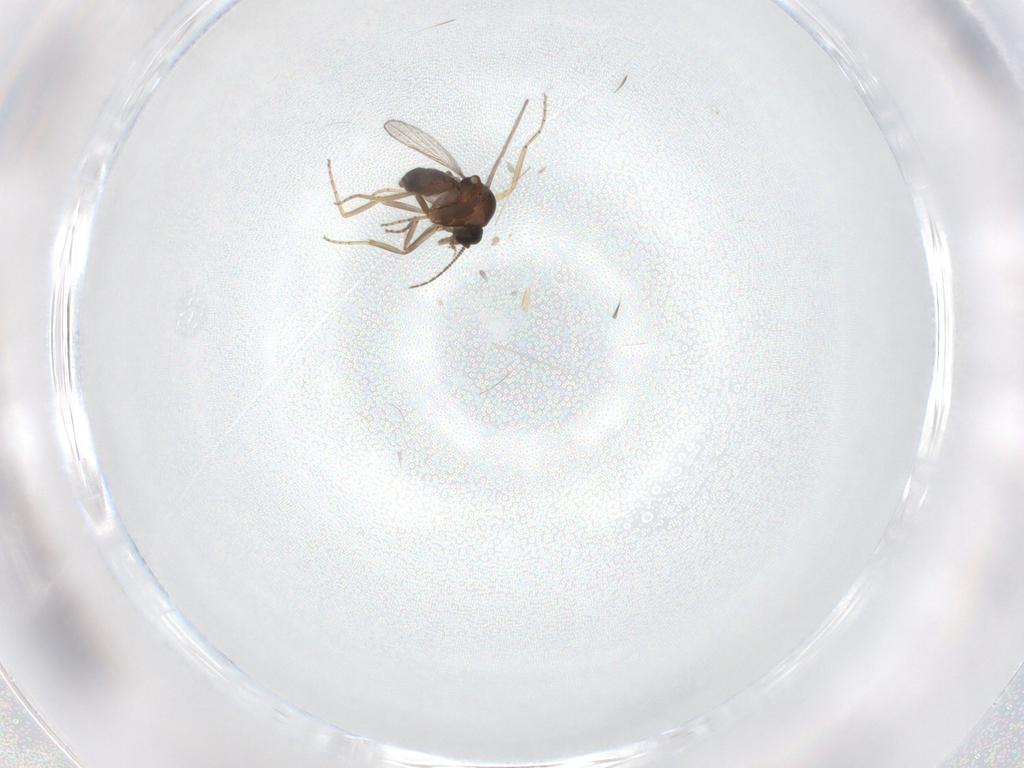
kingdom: Animalia
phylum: Arthropoda
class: Insecta
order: Diptera
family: Ceratopogonidae
